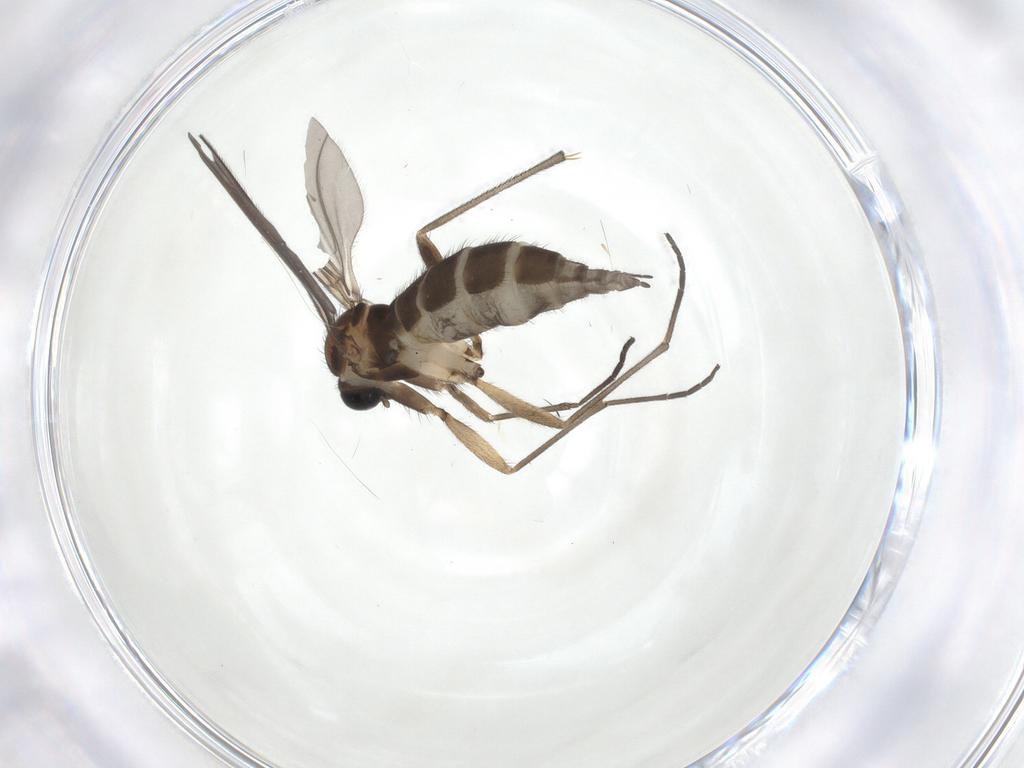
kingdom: Animalia
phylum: Arthropoda
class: Insecta
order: Diptera
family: Sciaridae
